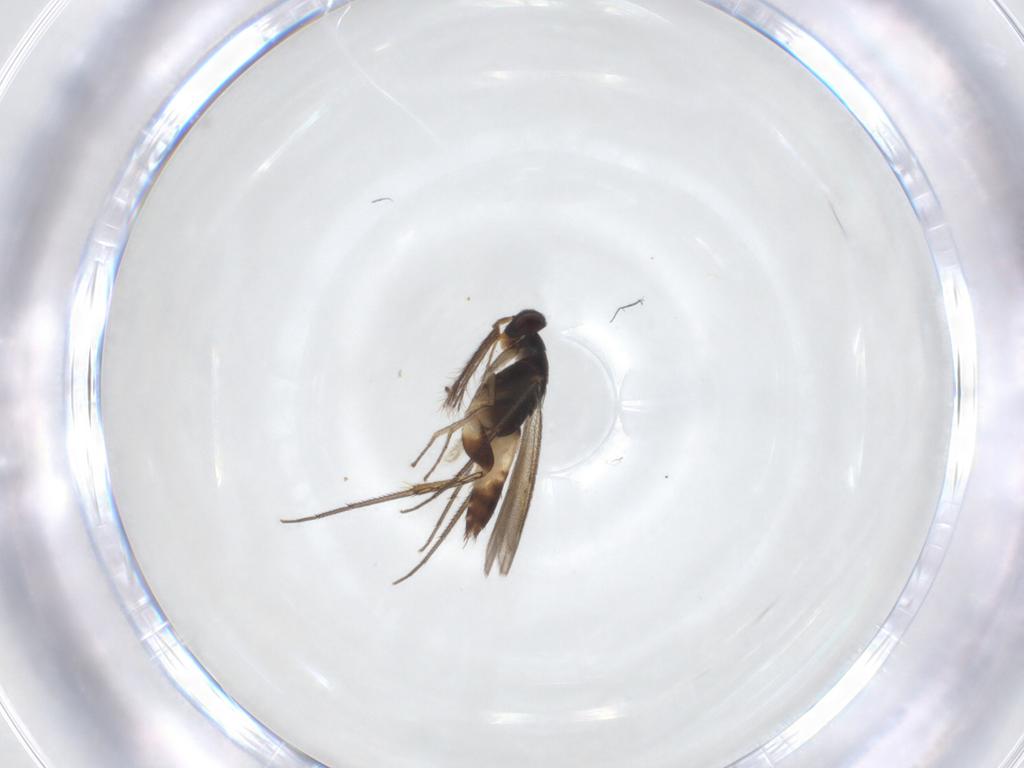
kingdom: Animalia
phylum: Arthropoda
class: Insecta
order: Hymenoptera
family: Eulophidae
